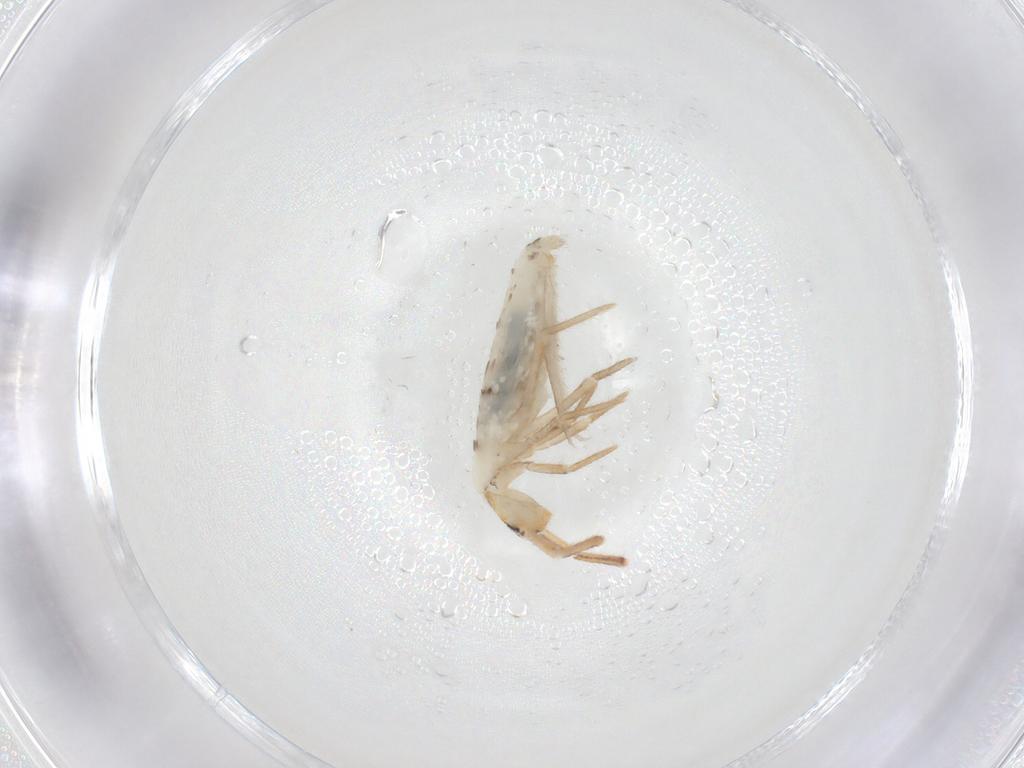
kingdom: Animalia
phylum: Arthropoda
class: Collembola
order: Entomobryomorpha
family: Entomobryidae
